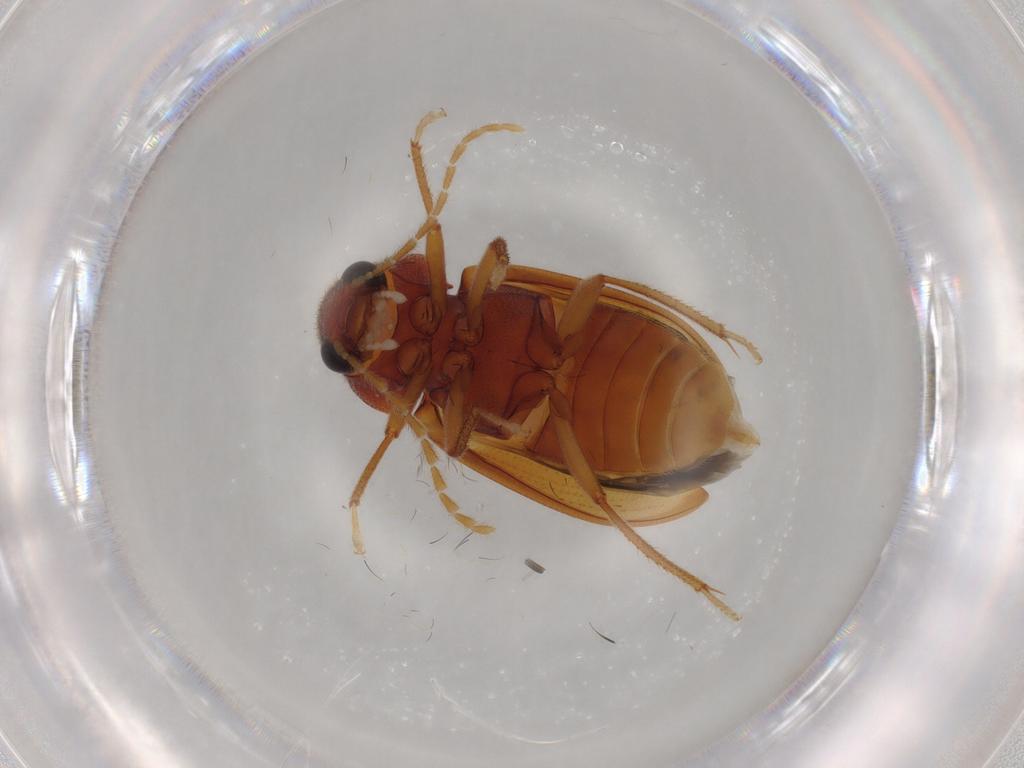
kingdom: Animalia
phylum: Arthropoda
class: Insecta
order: Coleoptera
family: Ptilodactylidae
